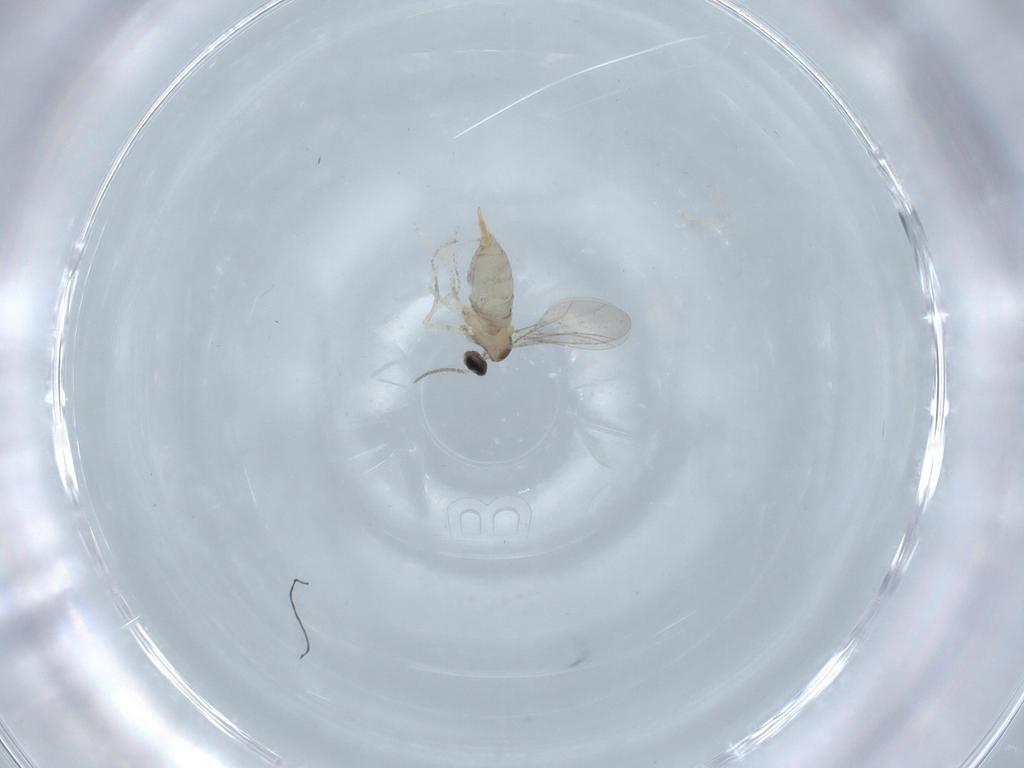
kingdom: Animalia
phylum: Arthropoda
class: Insecta
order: Diptera
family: Cecidomyiidae
